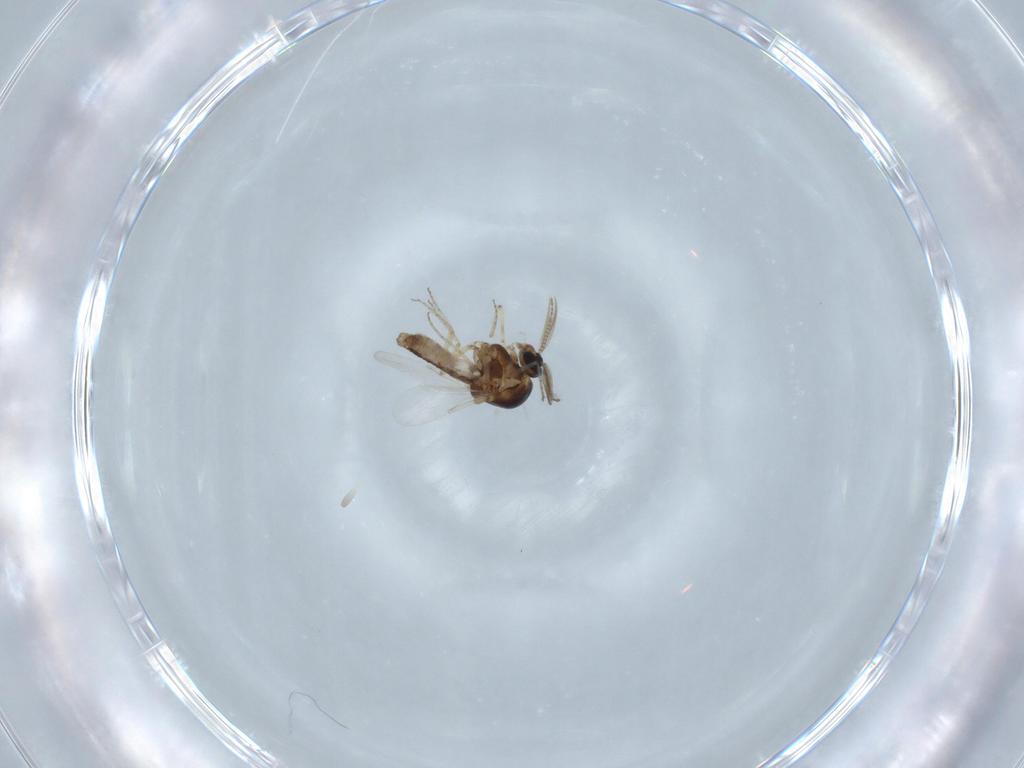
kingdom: Animalia
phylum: Arthropoda
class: Insecta
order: Diptera
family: Ceratopogonidae
